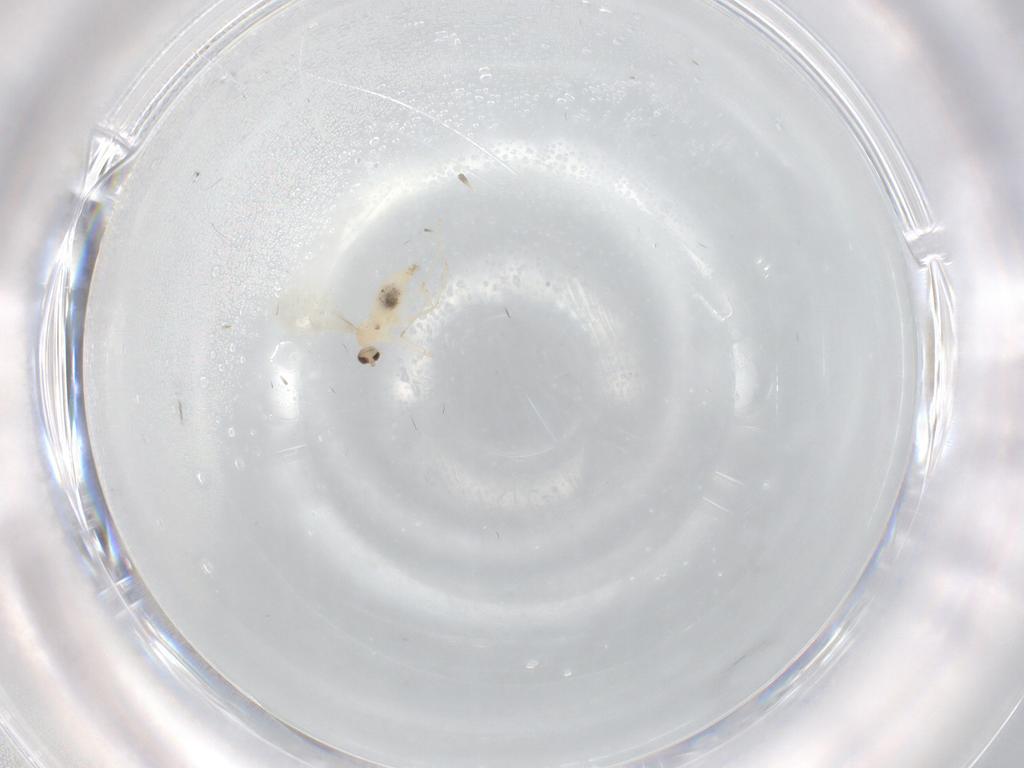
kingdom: Animalia
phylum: Arthropoda
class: Insecta
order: Diptera
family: Cecidomyiidae
